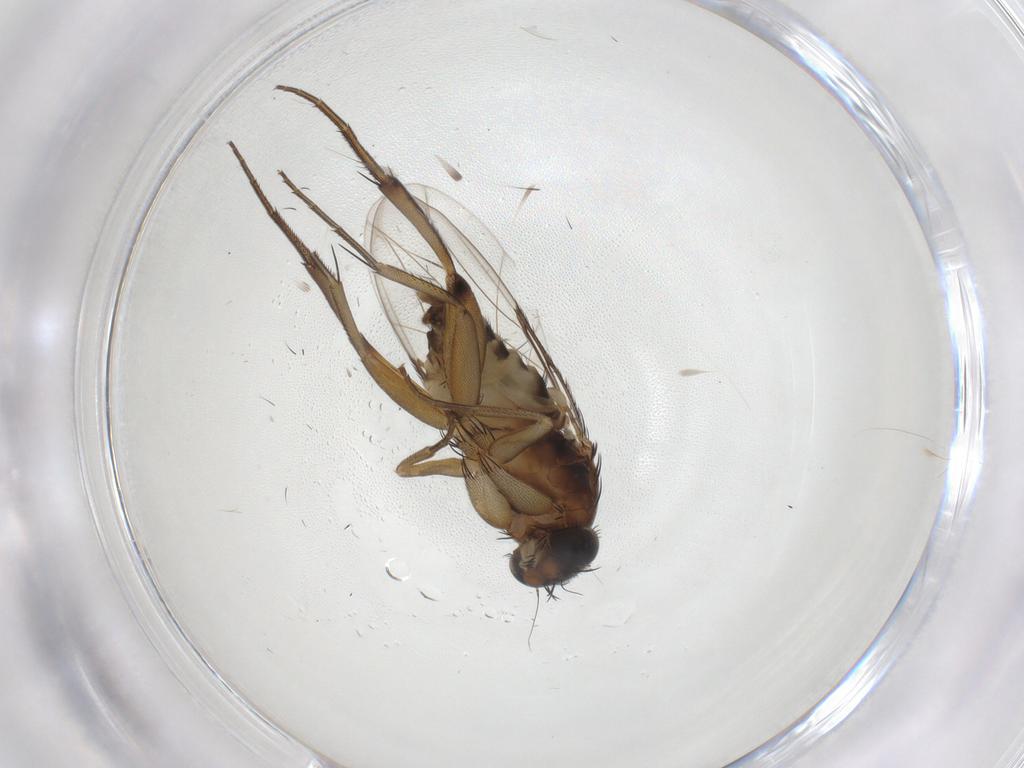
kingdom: Animalia
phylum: Arthropoda
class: Insecta
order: Diptera
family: Phoridae
